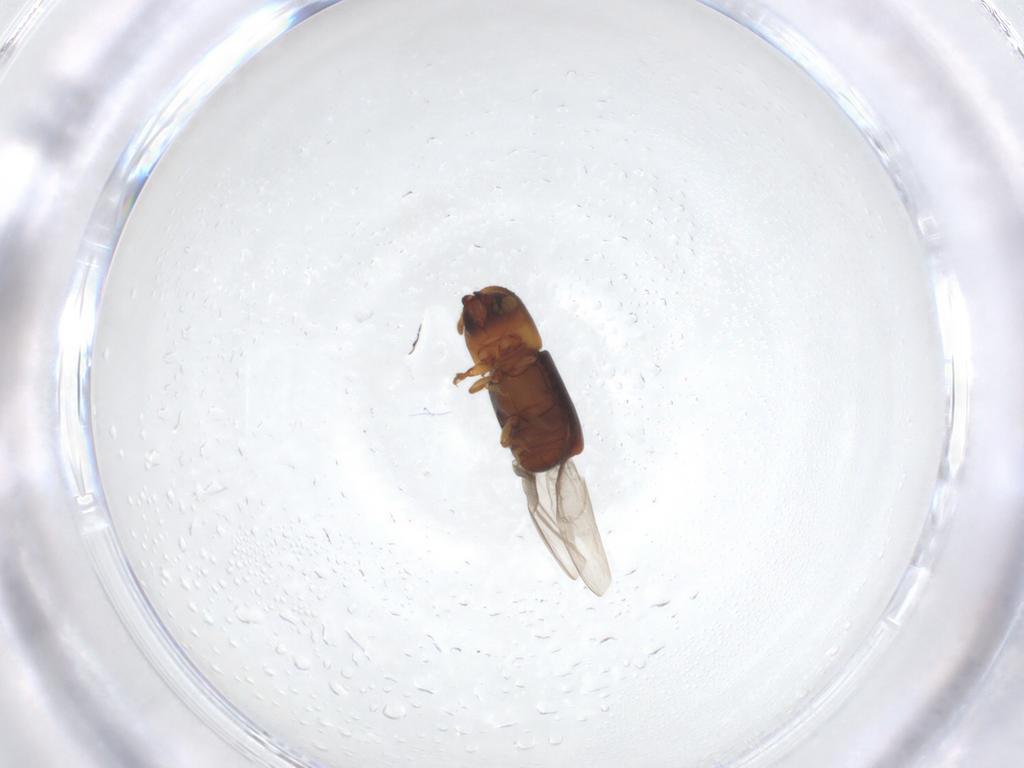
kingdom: Animalia
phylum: Arthropoda
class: Insecta
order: Coleoptera
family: Curculionidae
